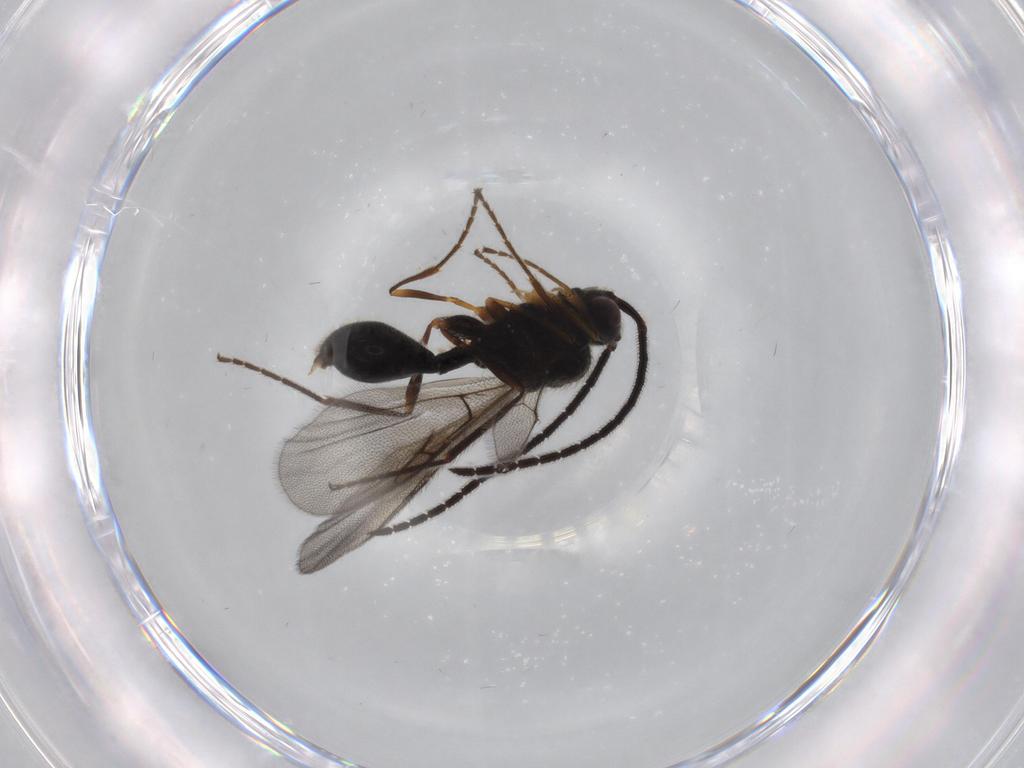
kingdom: Animalia
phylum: Arthropoda
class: Insecta
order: Hymenoptera
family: Diapriidae
